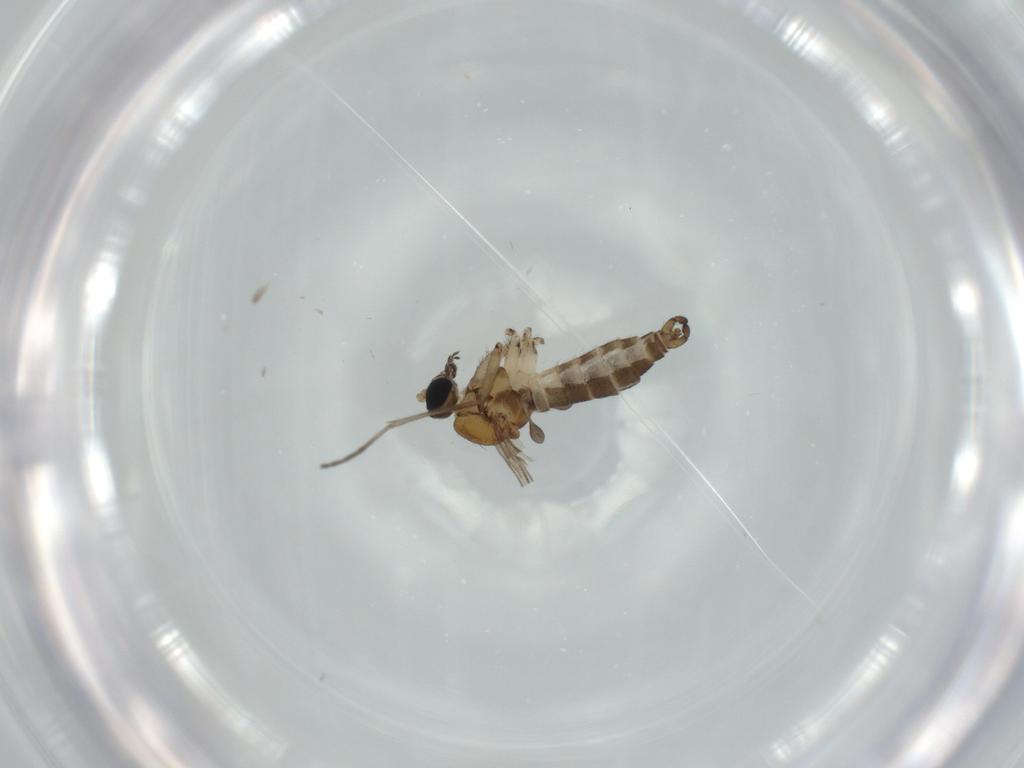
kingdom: Animalia
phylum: Arthropoda
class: Insecta
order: Diptera
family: Sciaridae
